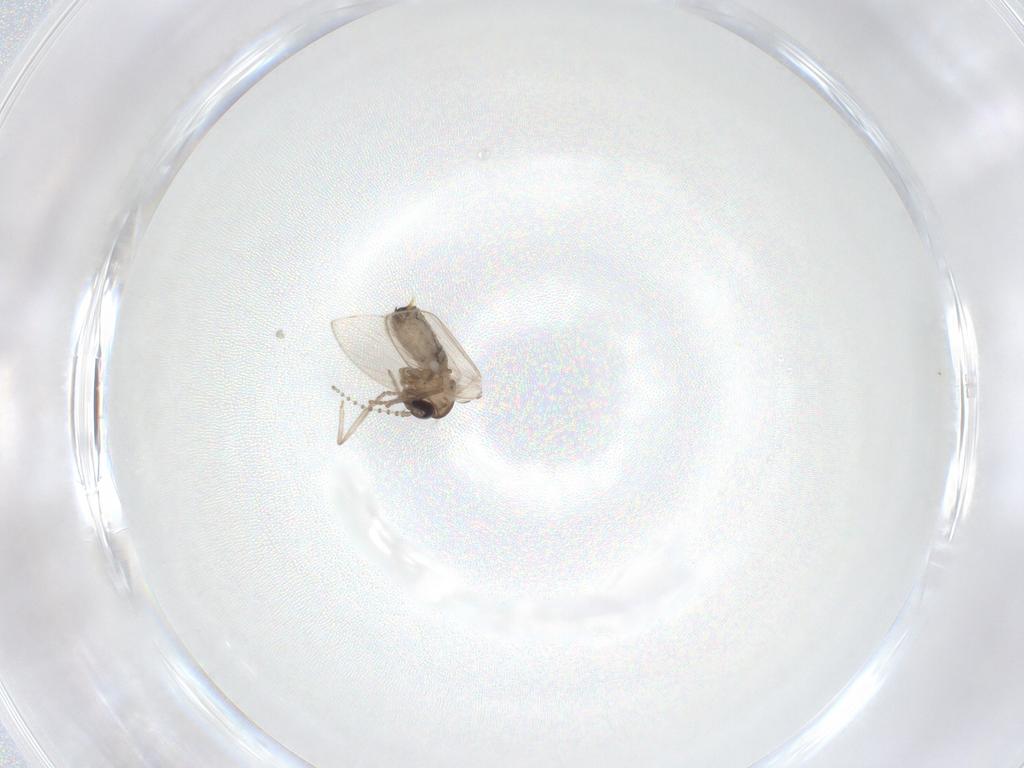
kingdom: Animalia
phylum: Arthropoda
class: Insecta
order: Diptera
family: Psychodidae
